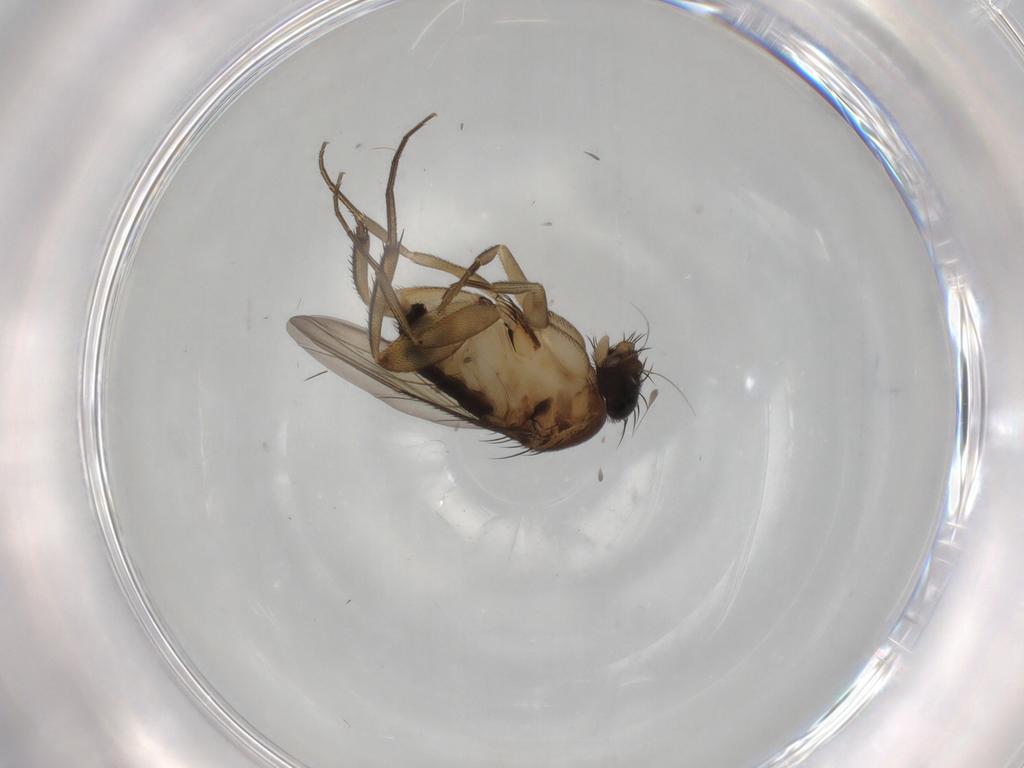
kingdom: Animalia
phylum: Arthropoda
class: Insecta
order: Diptera
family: Phoridae
